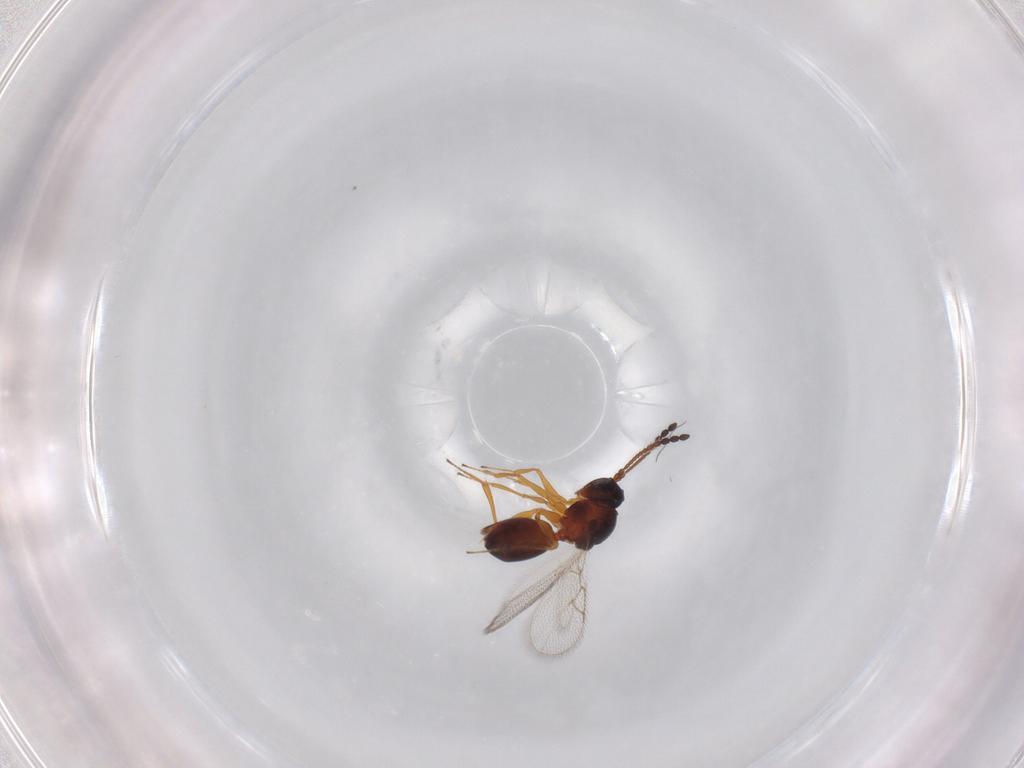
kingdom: Animalia
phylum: Arthropoda
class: Insecta
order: Hymenoptera
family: Figitidae
